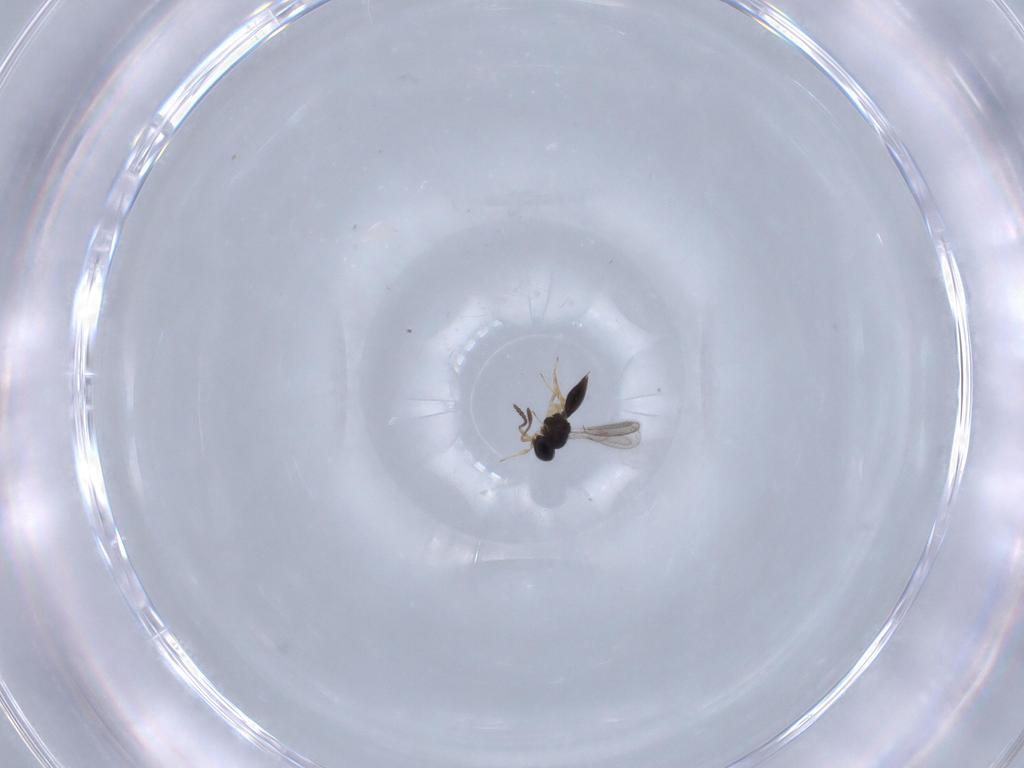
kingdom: Animalia
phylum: Arthropoda
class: Insecta
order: Hymenoptera
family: Scelionidae
